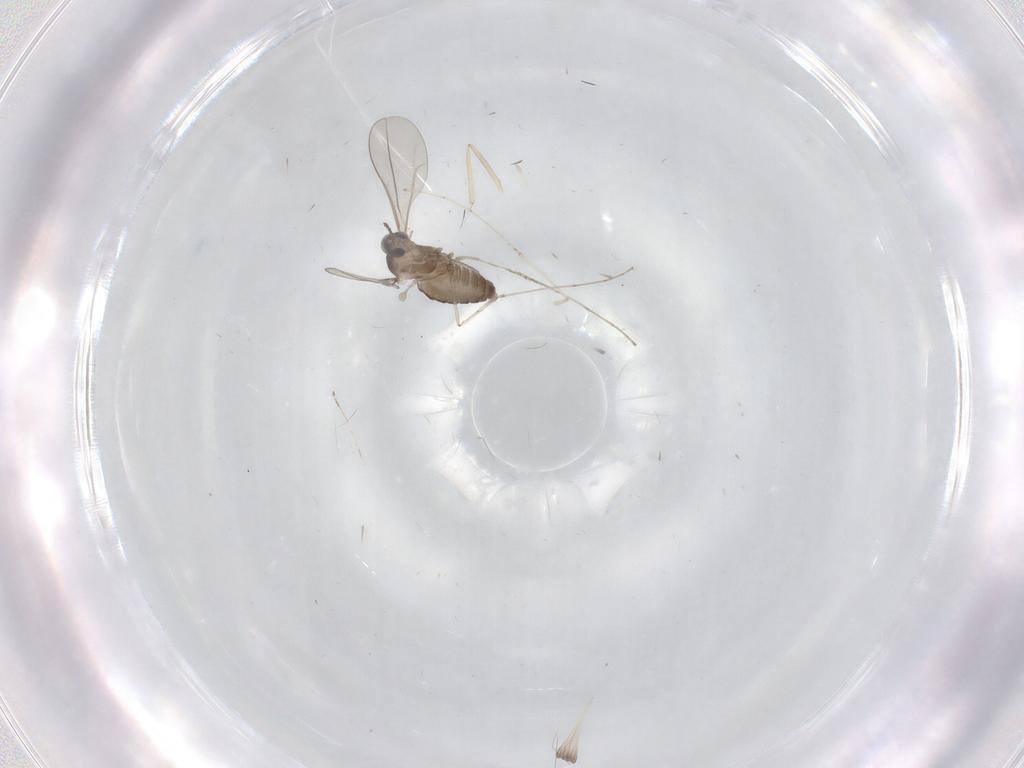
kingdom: Animalia
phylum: Arthropoda
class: Insecta
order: Diptera
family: Cecidomyiidae
